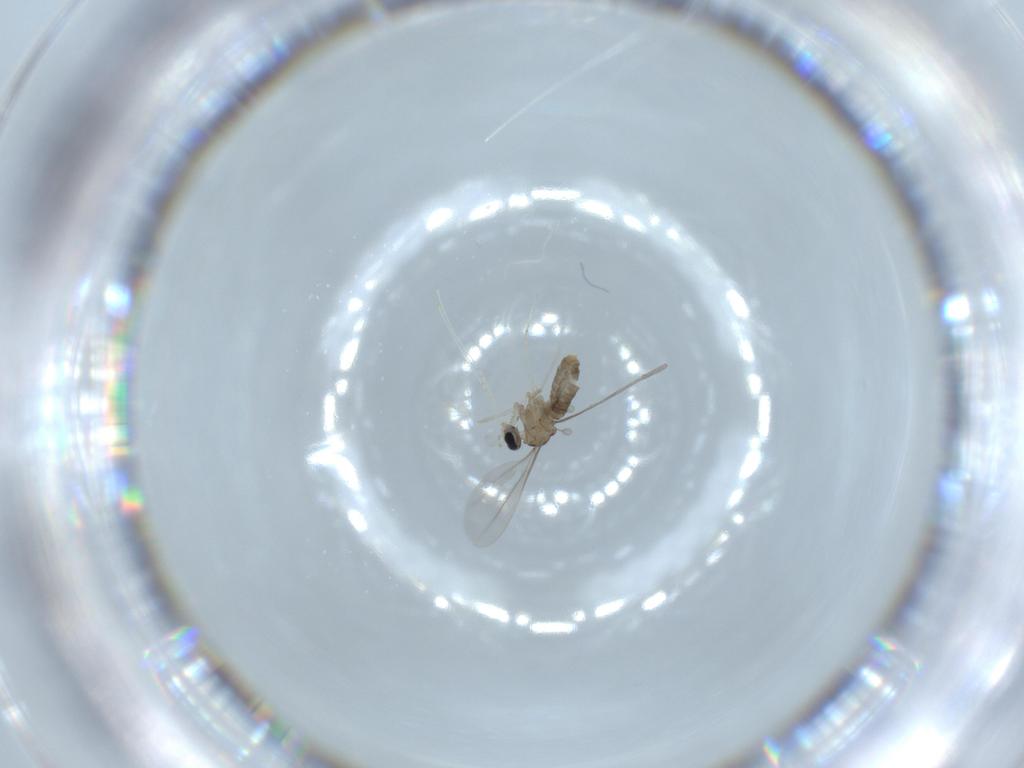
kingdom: Animalia
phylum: Arthropoda
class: Insecta
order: Diptera
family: Cecidomyiidae
